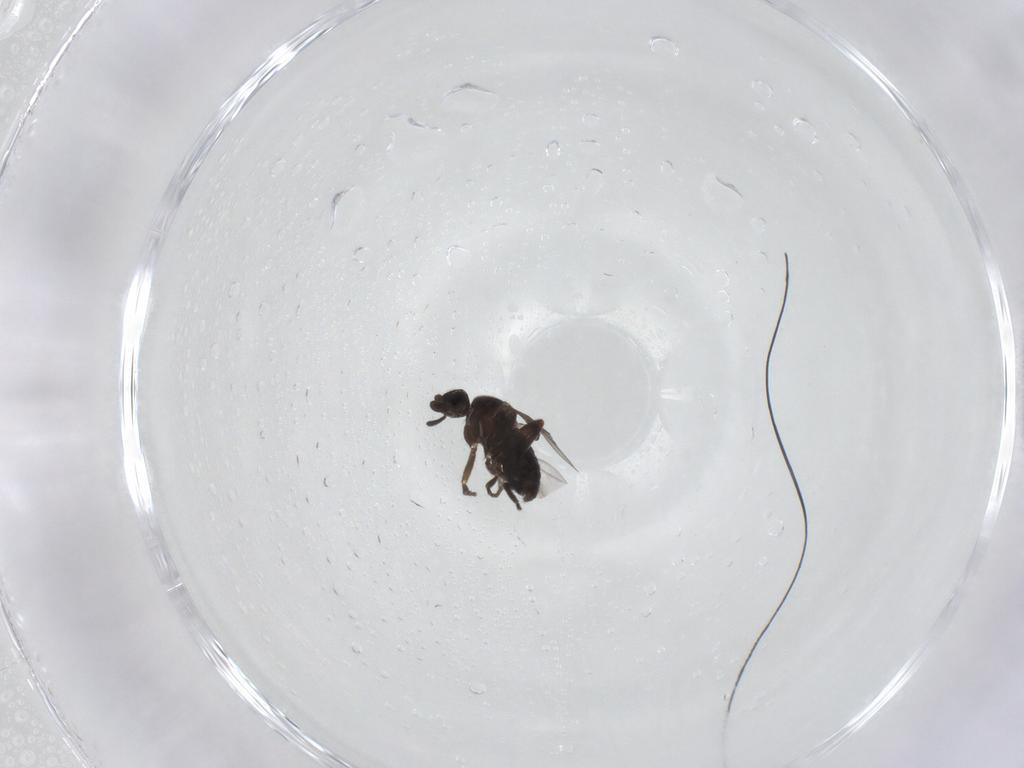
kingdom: Animalia
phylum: Arthropoda
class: Insecta
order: Diptera
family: Phoridae
